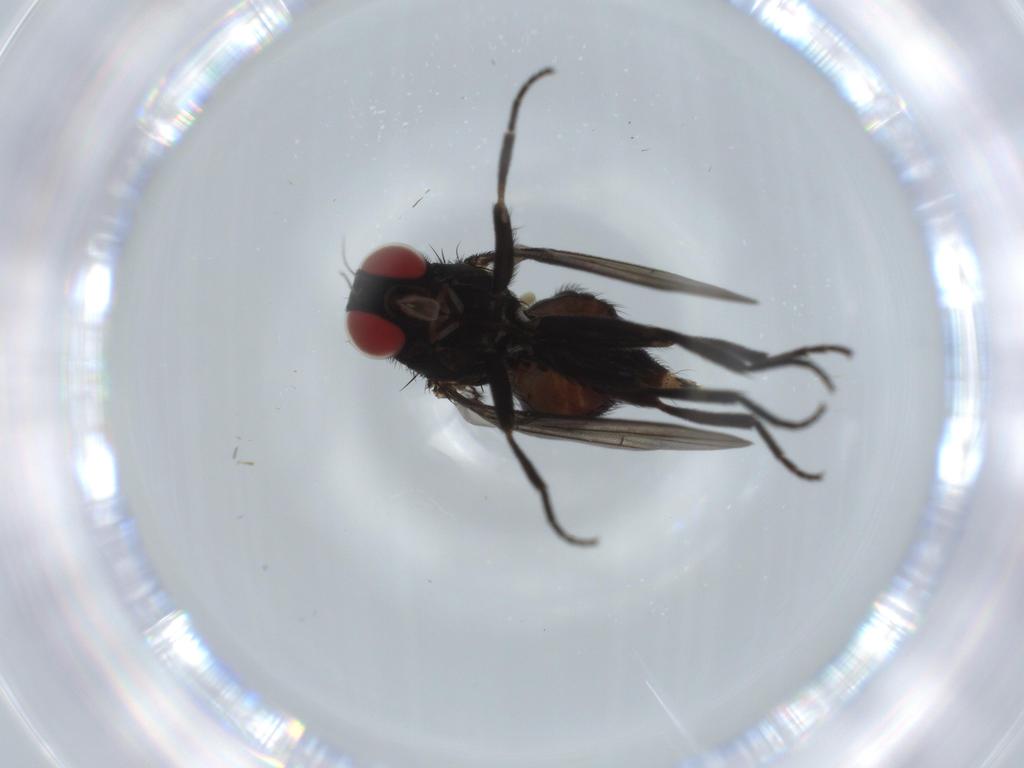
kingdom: Animalia
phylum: Arthropoda
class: Insecta
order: Diptera
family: Agromyzidae
